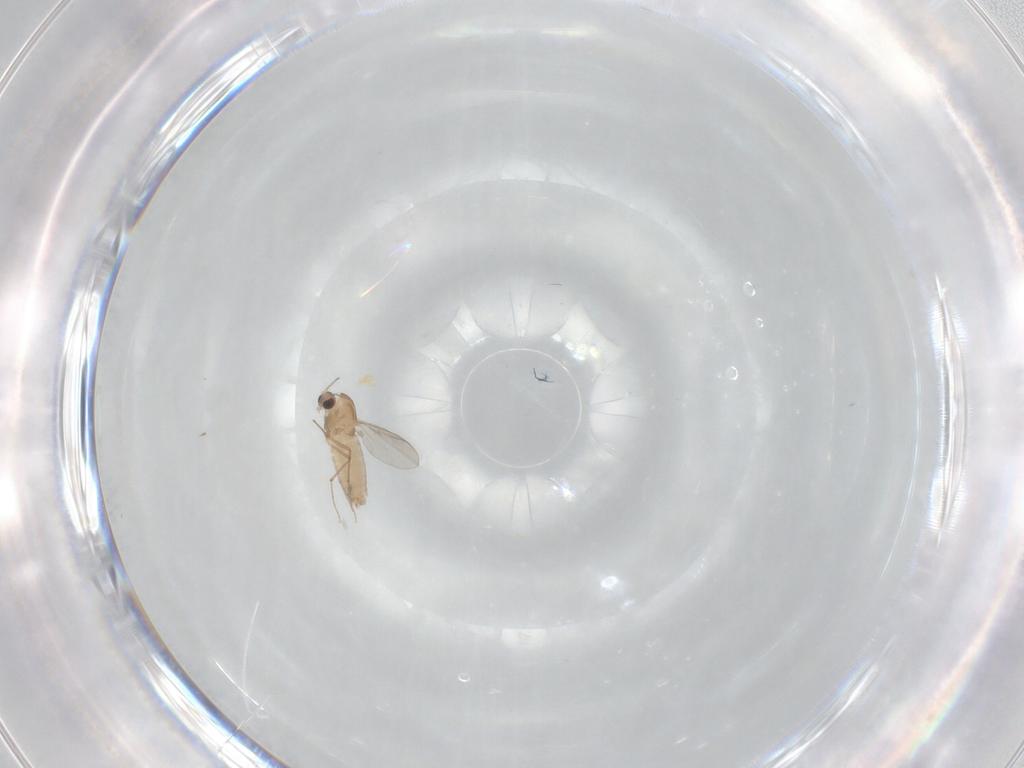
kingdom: Animalia
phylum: Arthropoda
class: Insecta
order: Diptera
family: Chironomidae
